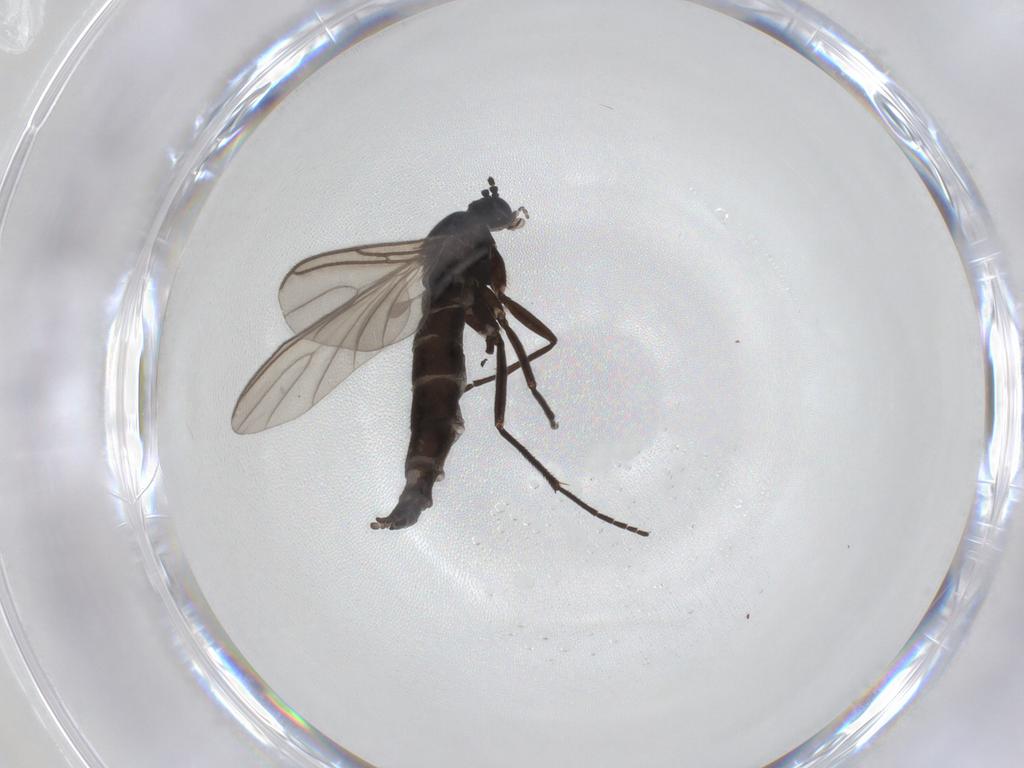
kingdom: Animalia
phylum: Arthropoda
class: Insecta
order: Diptera
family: Sciaridae
